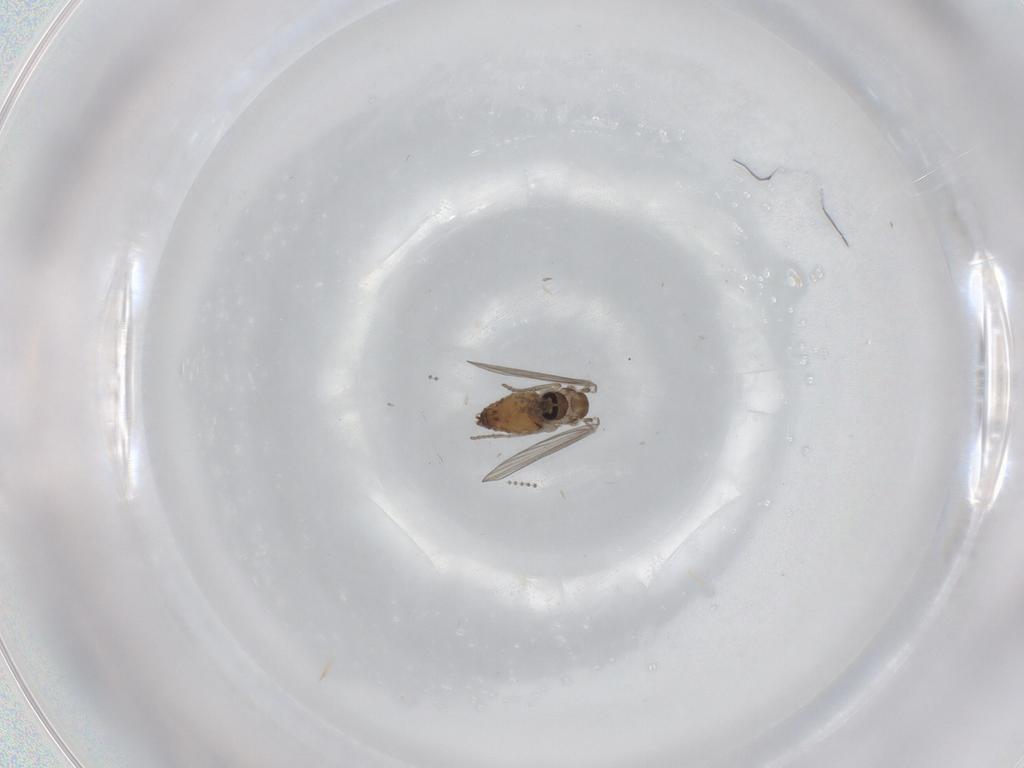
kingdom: Animalia
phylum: Arthropoda
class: Insecta
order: Diptera
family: Psychodidae
